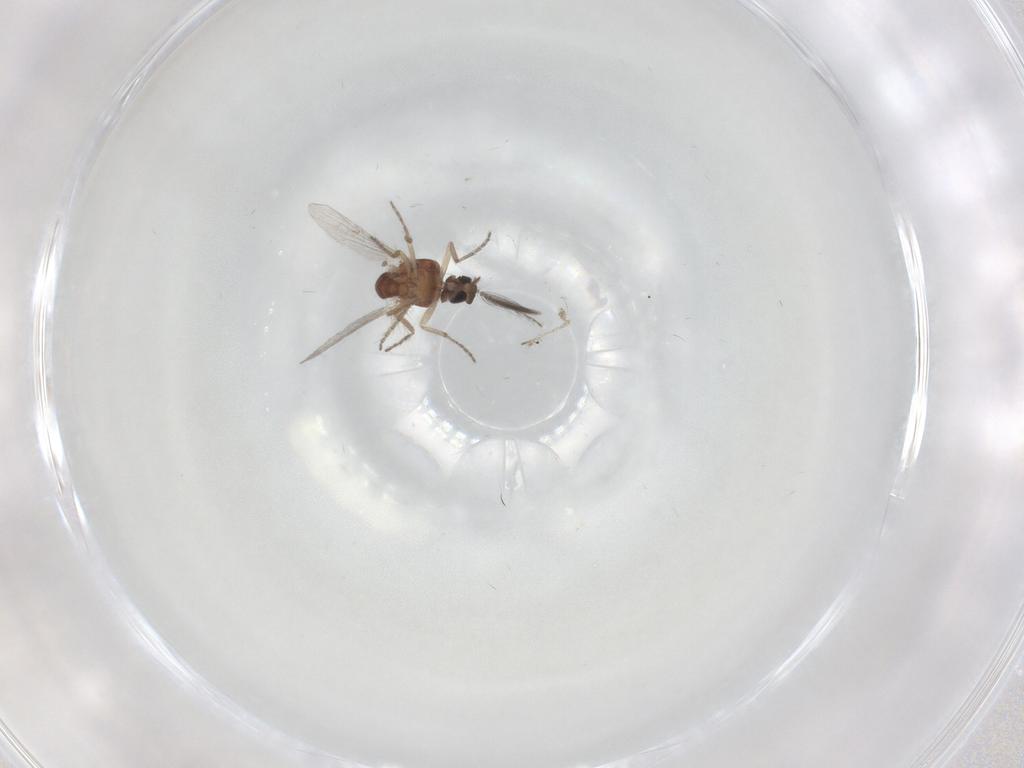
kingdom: Animalia
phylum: Arthropoda
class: Insecta
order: Diptera
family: Ceratopogonidae
